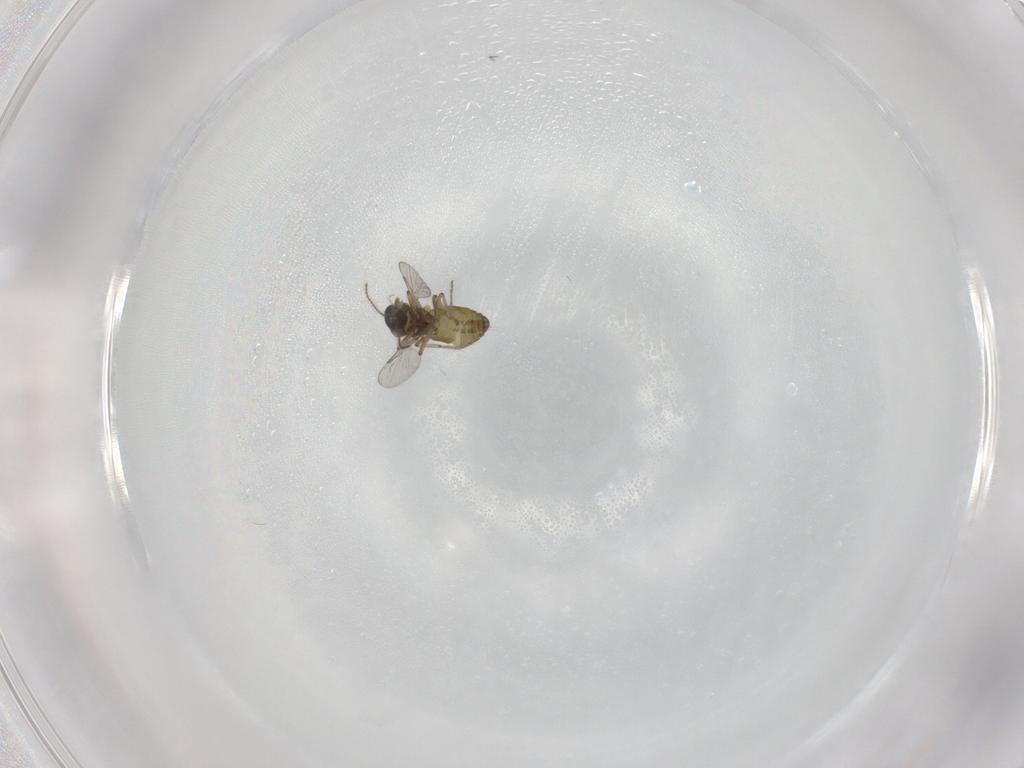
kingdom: Animalia
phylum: Arthropoda
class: Insecta
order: Diptera
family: Ceratopogonidae
